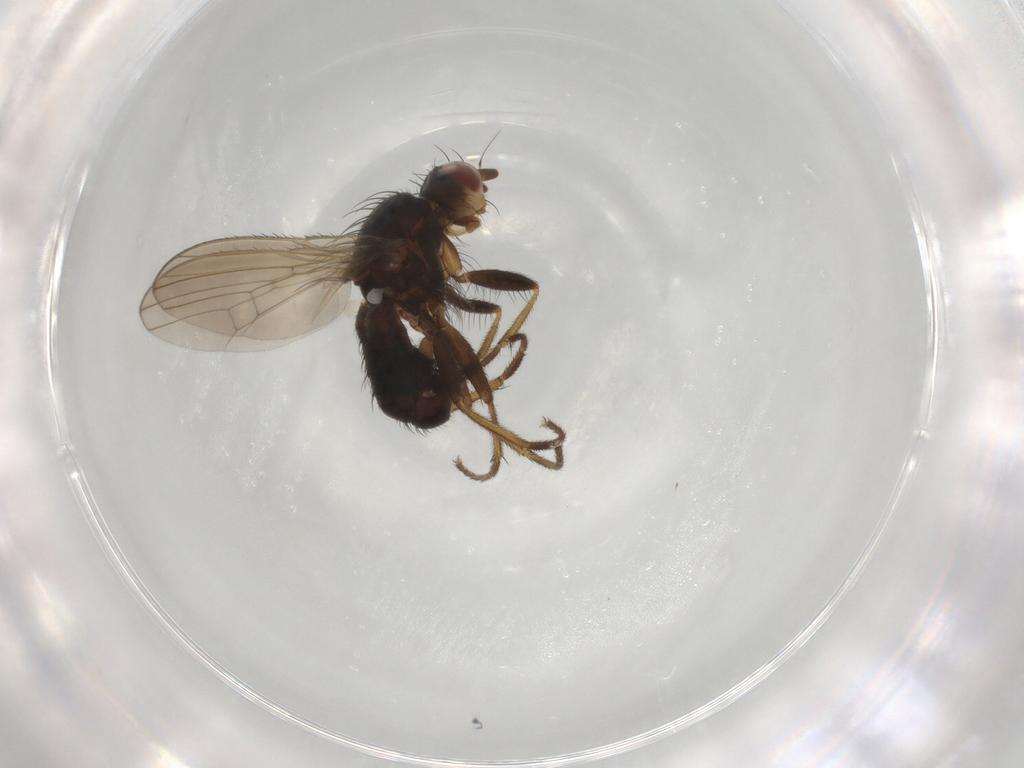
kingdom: Animalia
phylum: Arthropoda
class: Insecta
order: Diptera
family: Heleomyzidae
